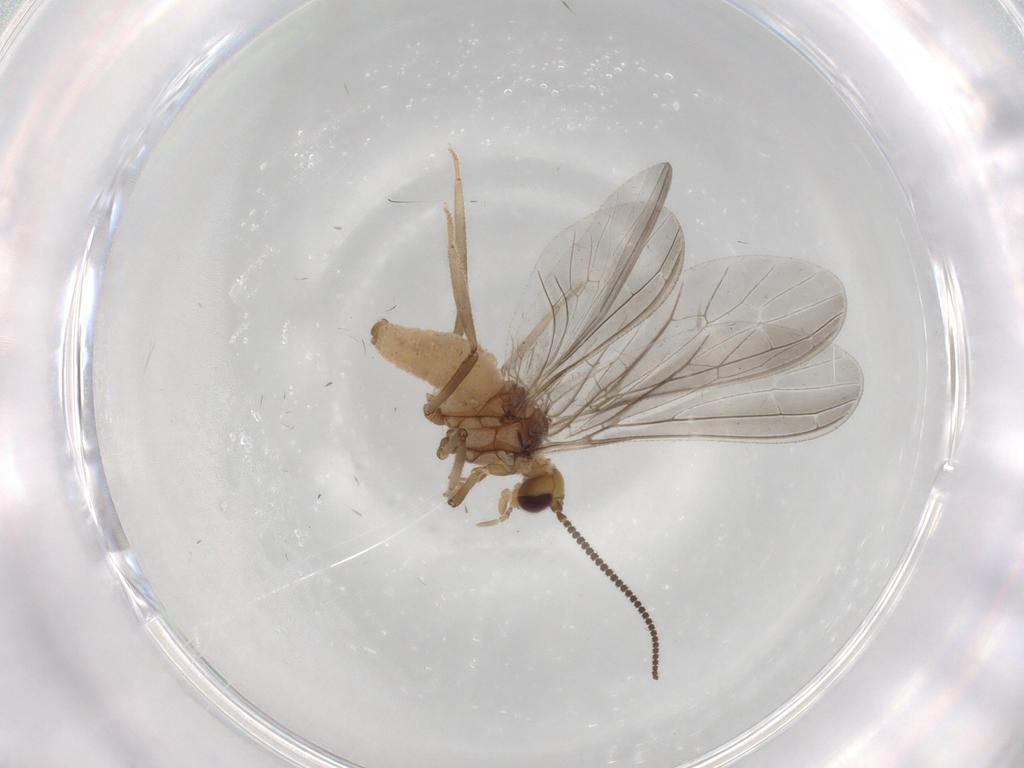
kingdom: Animalia
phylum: Arthropoda
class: Insecta
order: Neuroptera
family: Coniopterygidae
